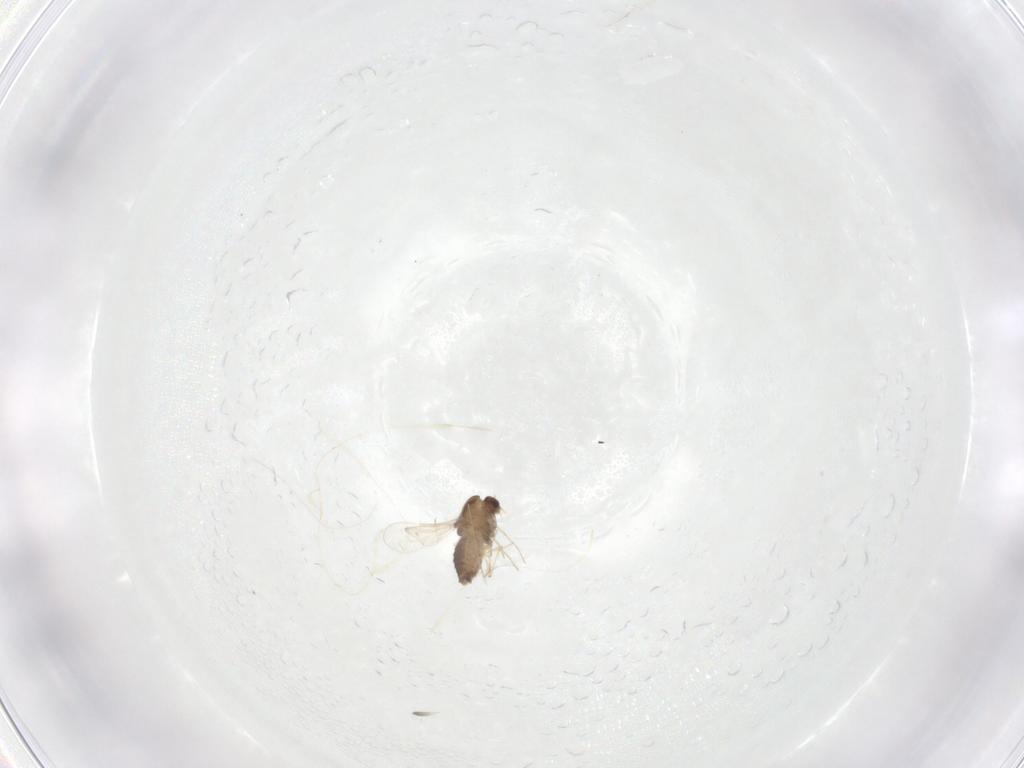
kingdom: Animalia
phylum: Arthropoda
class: Insecta
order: Diptera
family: Chironomidae
